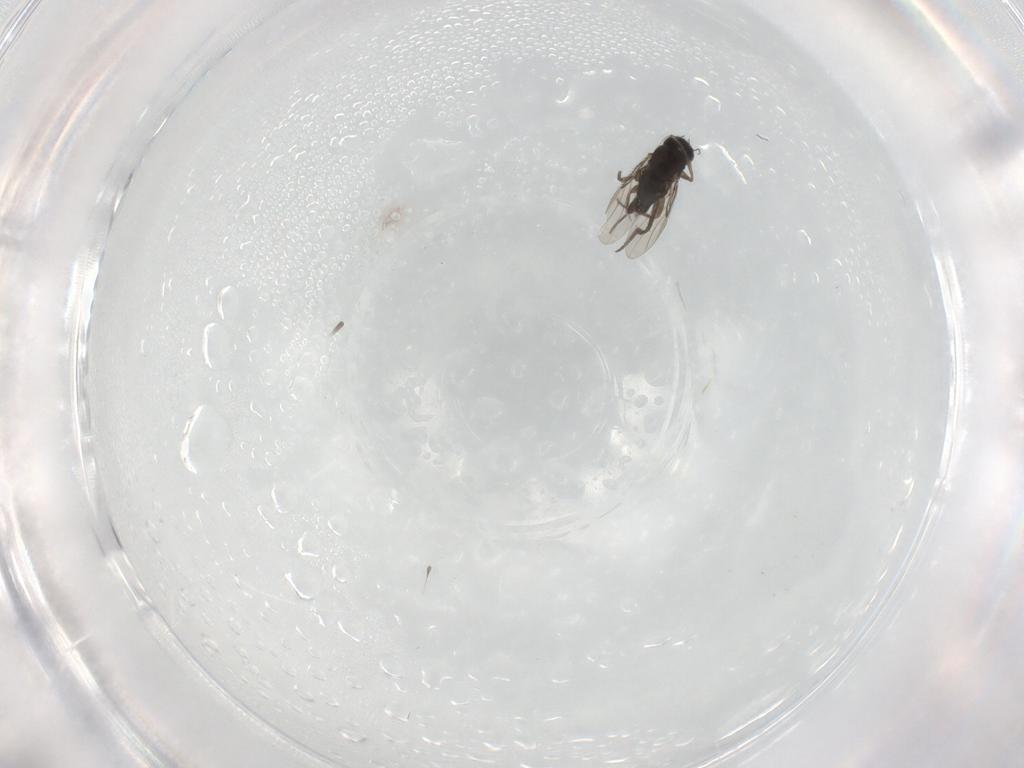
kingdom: Animalia
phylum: Arthropoda
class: Insecta
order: Diptera
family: Phoridae
